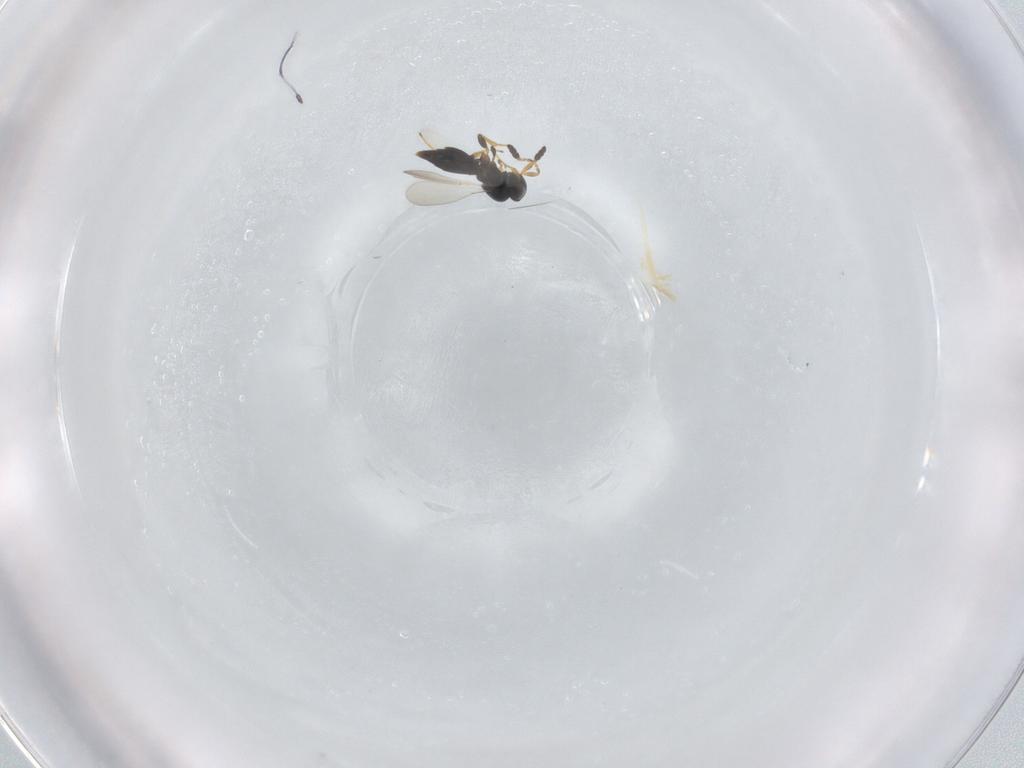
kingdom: Animalia
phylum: Arthropoda
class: Insecta
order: Hymenoptera
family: Platygastridae
